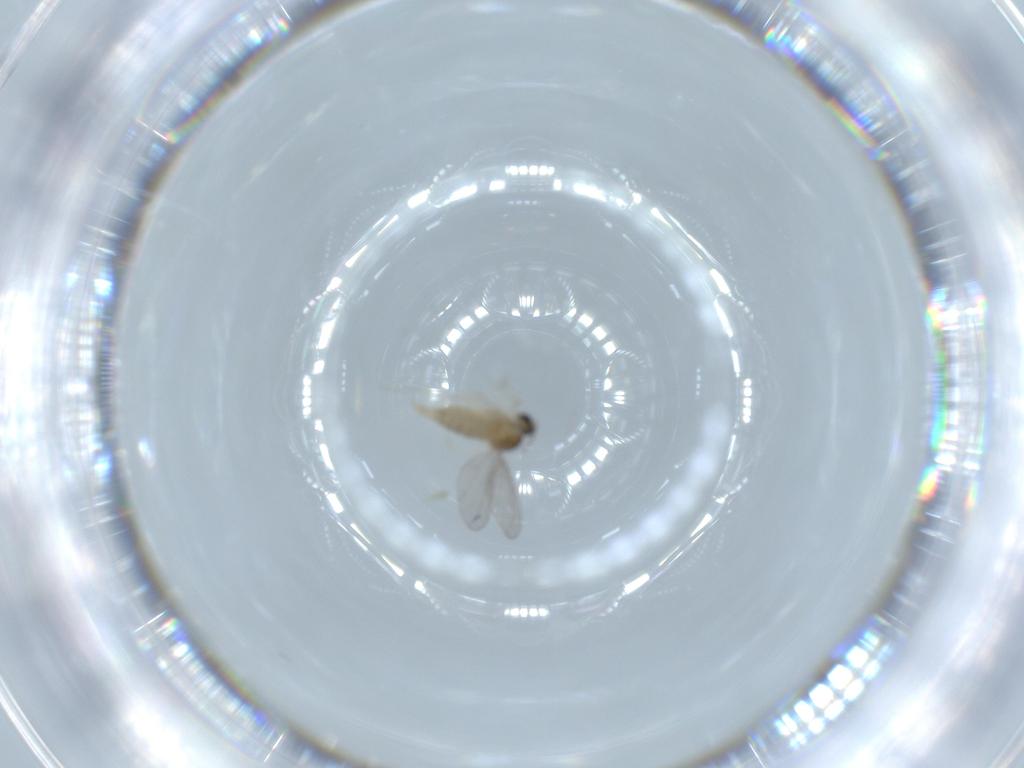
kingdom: Animalia
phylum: Arthropoda
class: Insecta
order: Diptera
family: Cecidomyiidae
